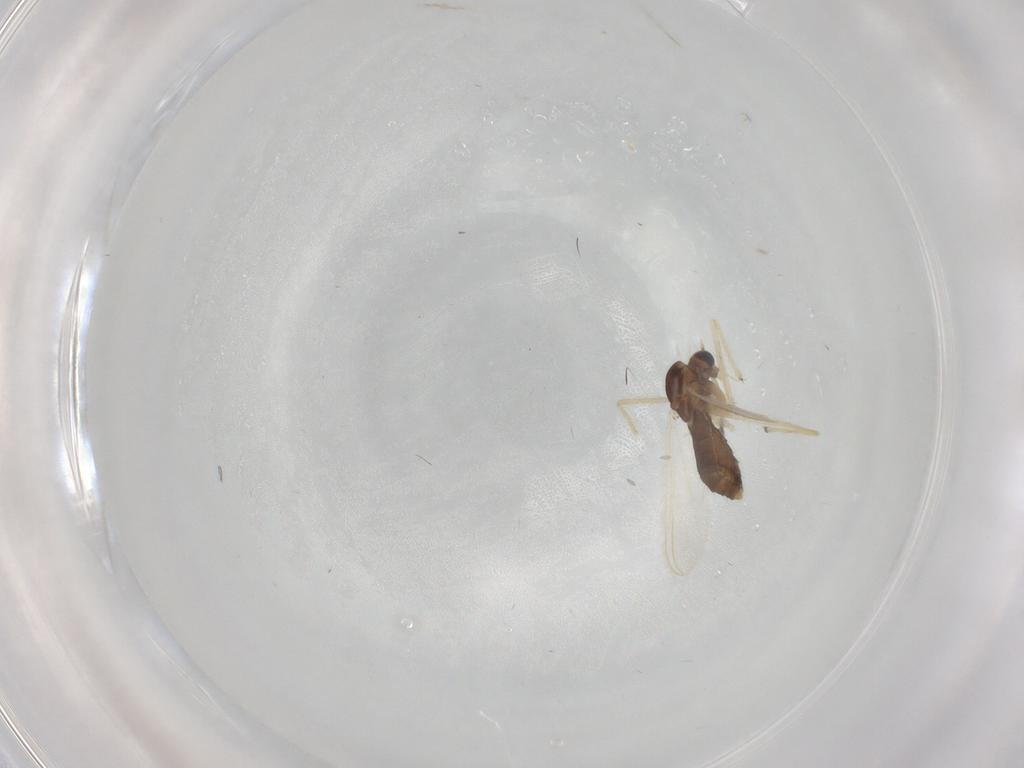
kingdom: Animalia
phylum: Arthropoda
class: Insecta
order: Diptera
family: Chironomidae
